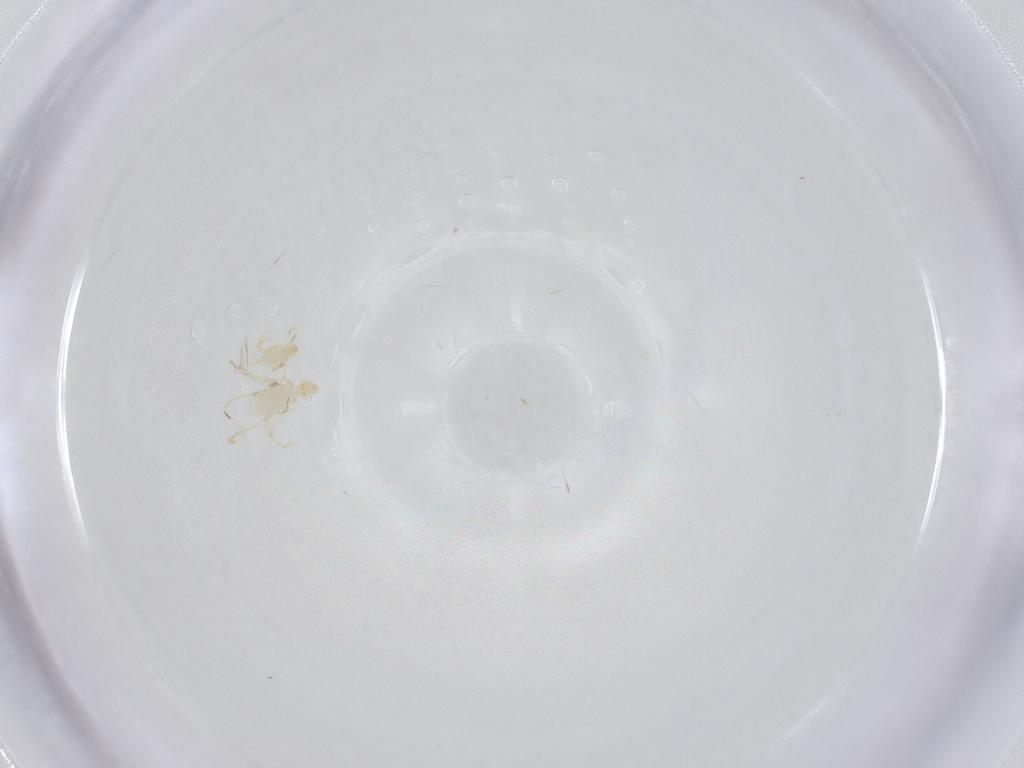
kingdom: Animalia
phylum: Arthropoda
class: Arachnida
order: Trombidiformes
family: Erythraeidae
